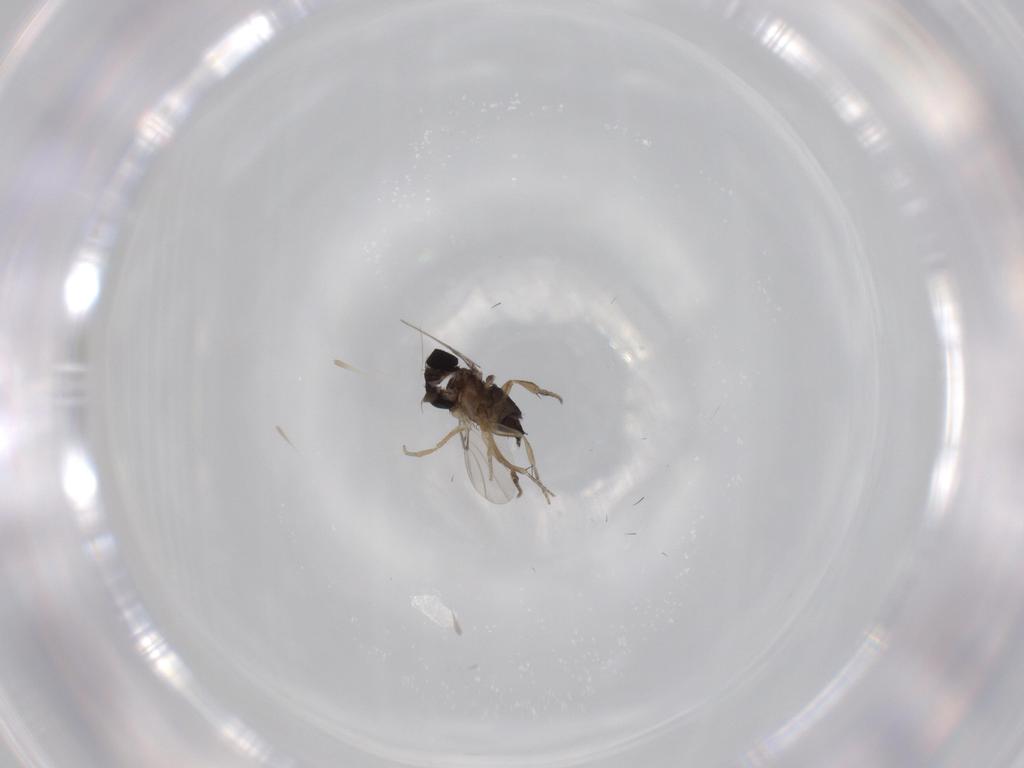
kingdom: Animalia
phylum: Arthropoda
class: Insecta
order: Diptera
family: Phoridae
